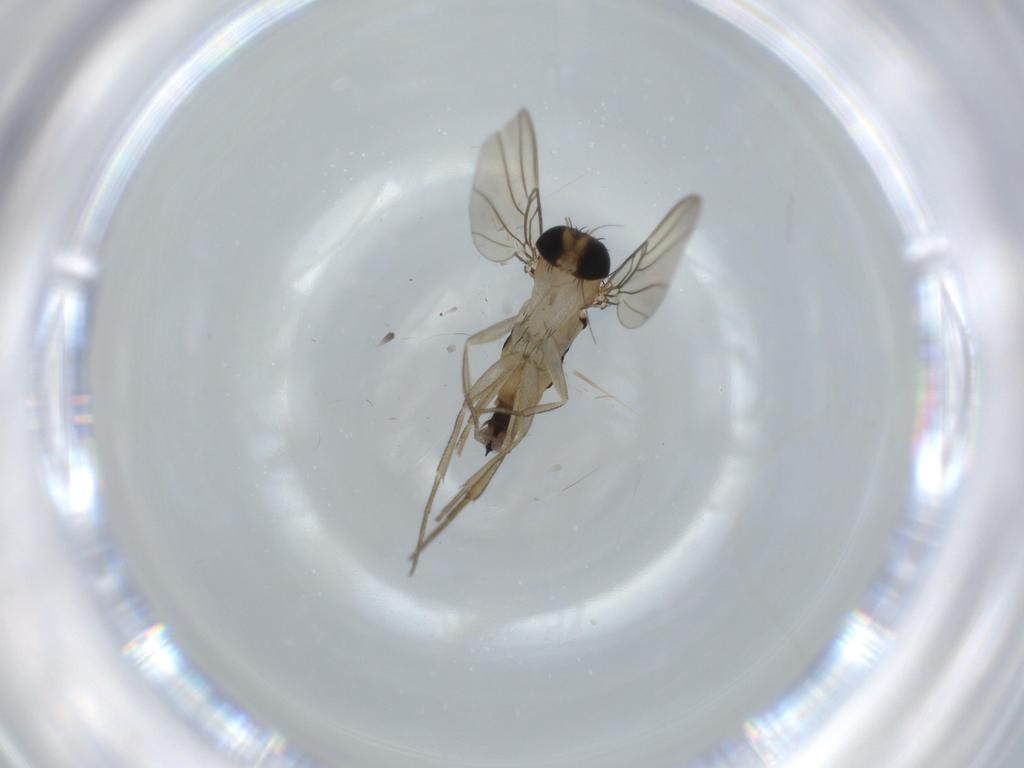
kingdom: Animalia
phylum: Arthropoda
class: Insecta
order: Diptera
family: Phoridae
